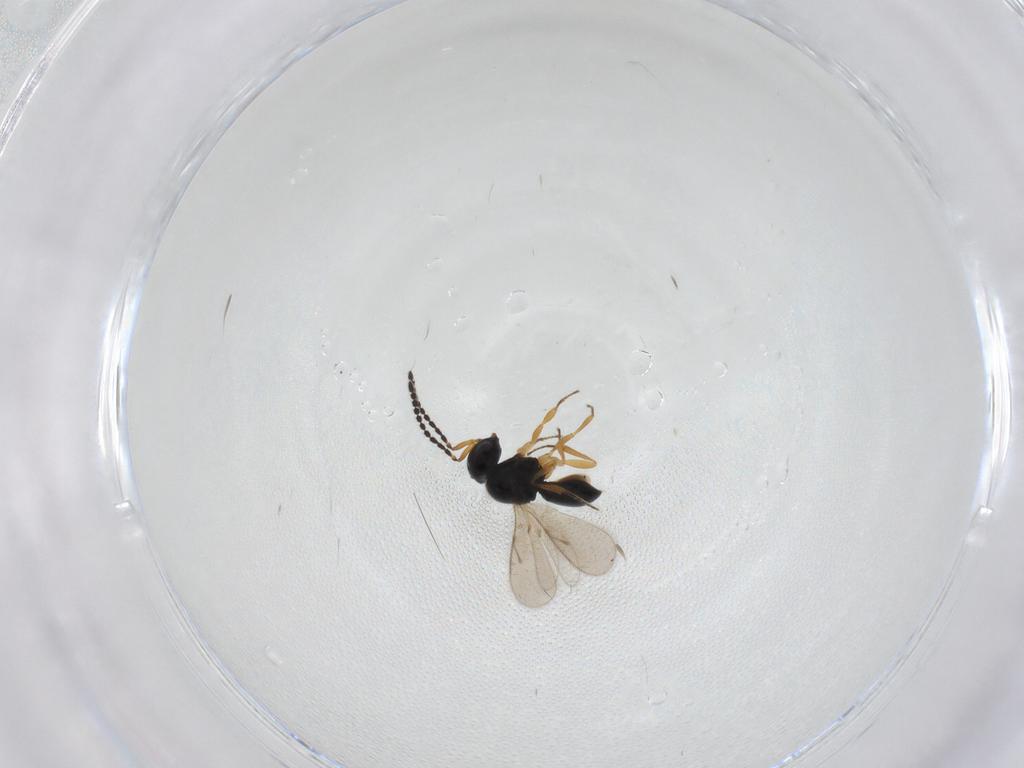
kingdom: Animalia
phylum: Arthropoda
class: Insecta
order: Hymenoptera
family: Scelionidae
